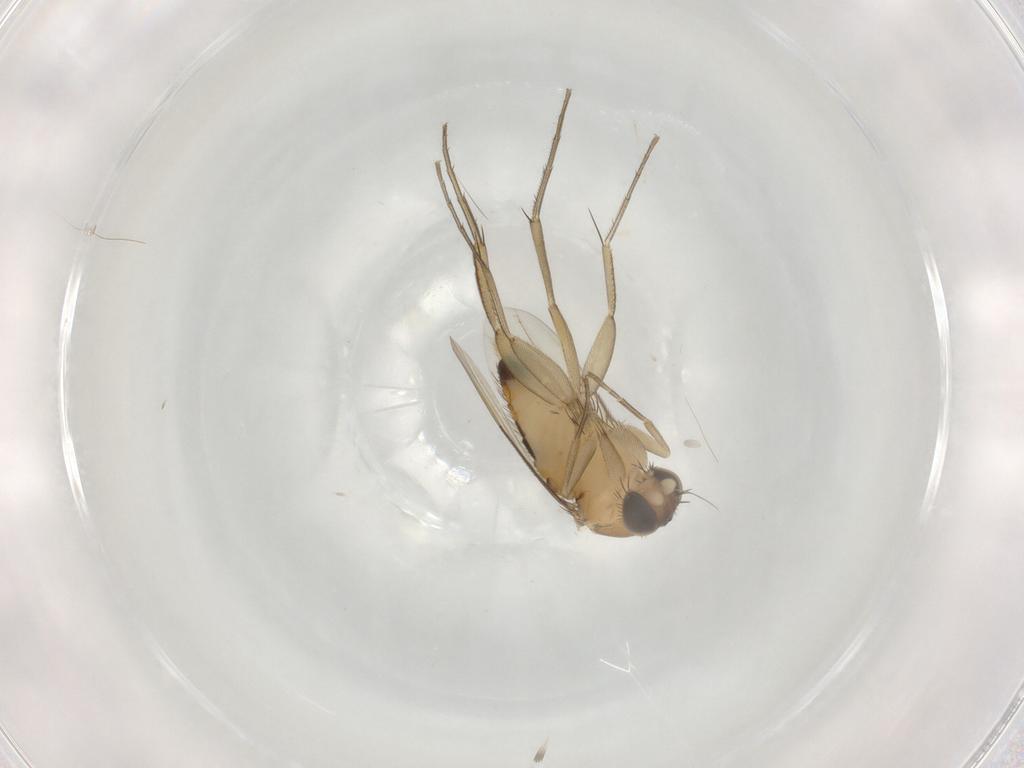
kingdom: Animalia
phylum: Arthropoda
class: Insecta
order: Diptera
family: Phoridae
